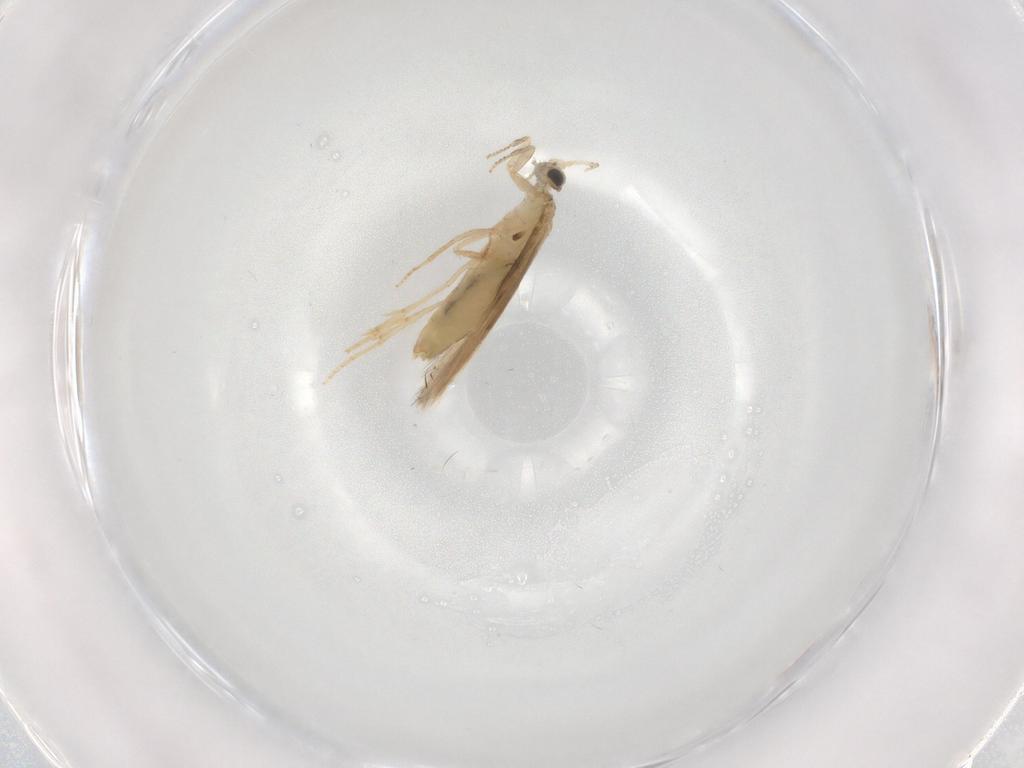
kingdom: Animalia
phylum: Arthropoda
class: Insecta
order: Trichoptera
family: Hydroptilidae
